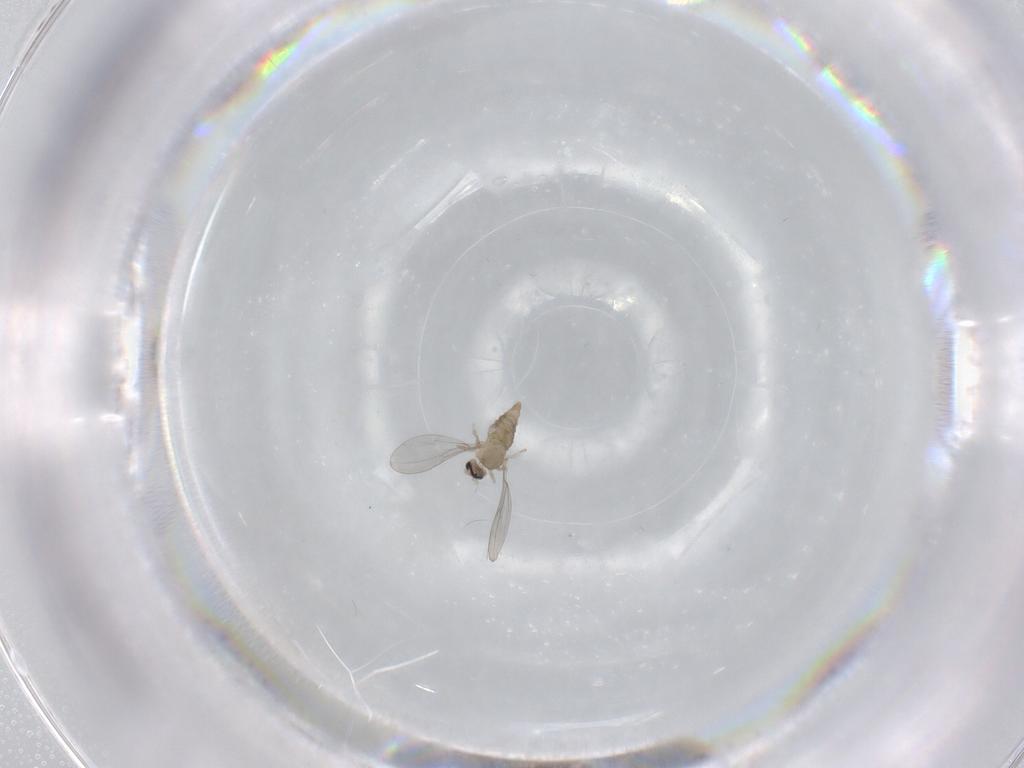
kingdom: Animalia
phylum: Arthropoda
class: Insecta
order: Diptera
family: Cecidomyiidae
